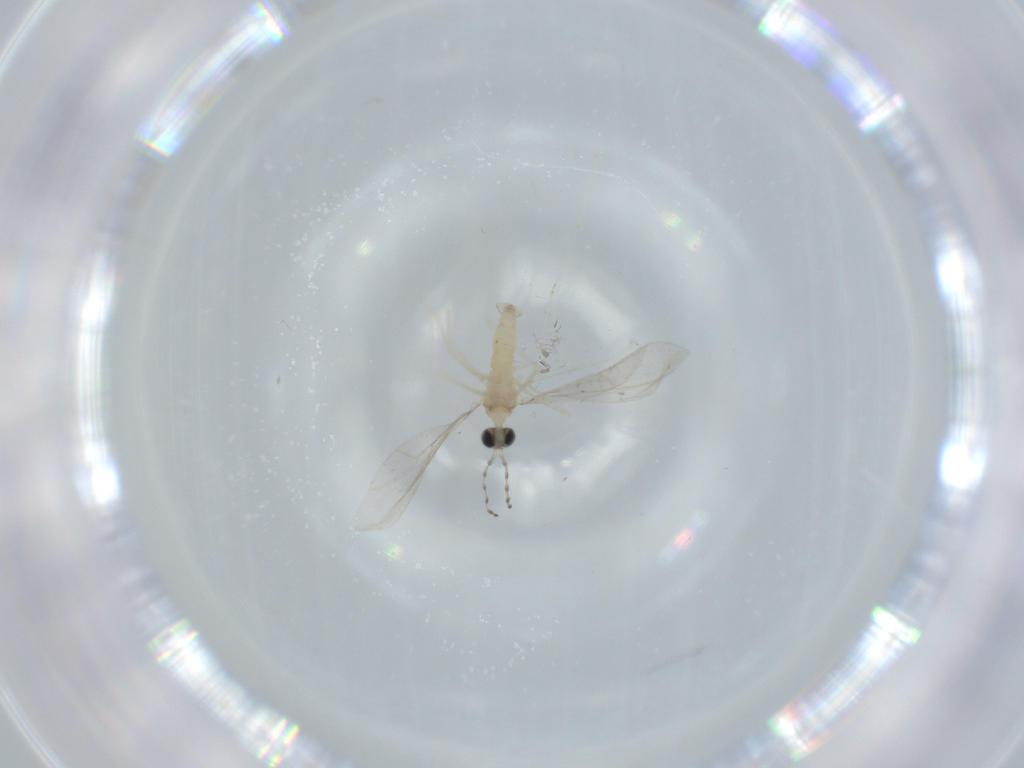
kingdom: Animalia
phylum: Arthropoda
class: Insecta
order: Diptera
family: Cecidomyiidae
